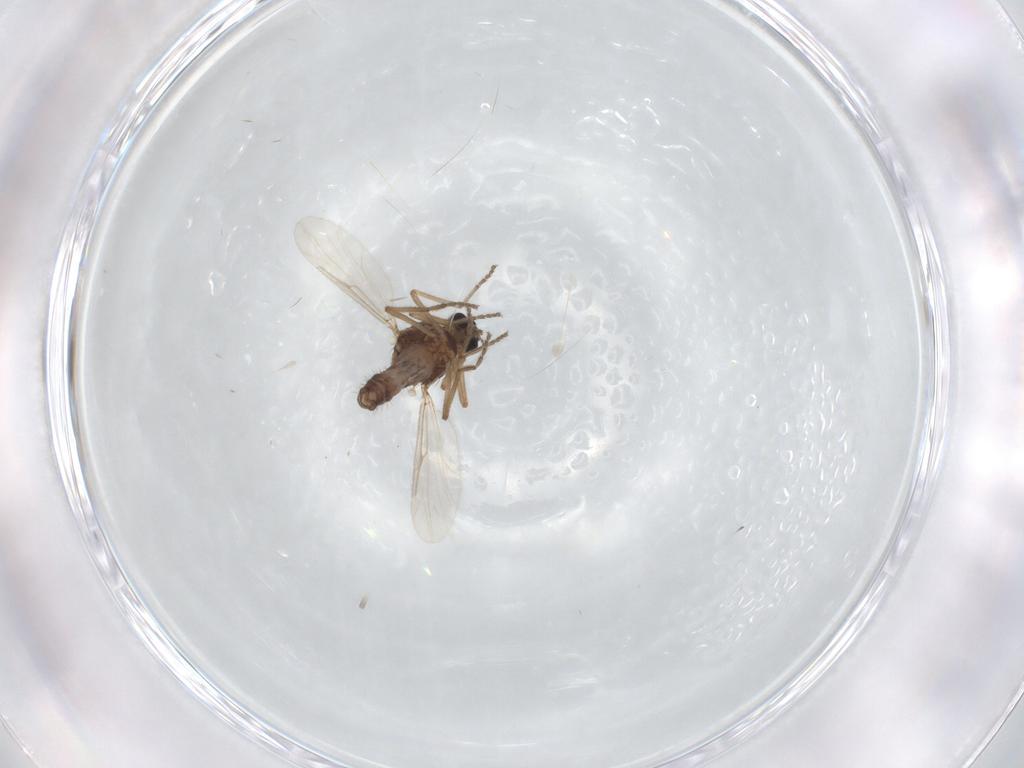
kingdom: Animalia
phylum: Arthropoda
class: Insecta
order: Diptera
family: Ceratopogonidae
